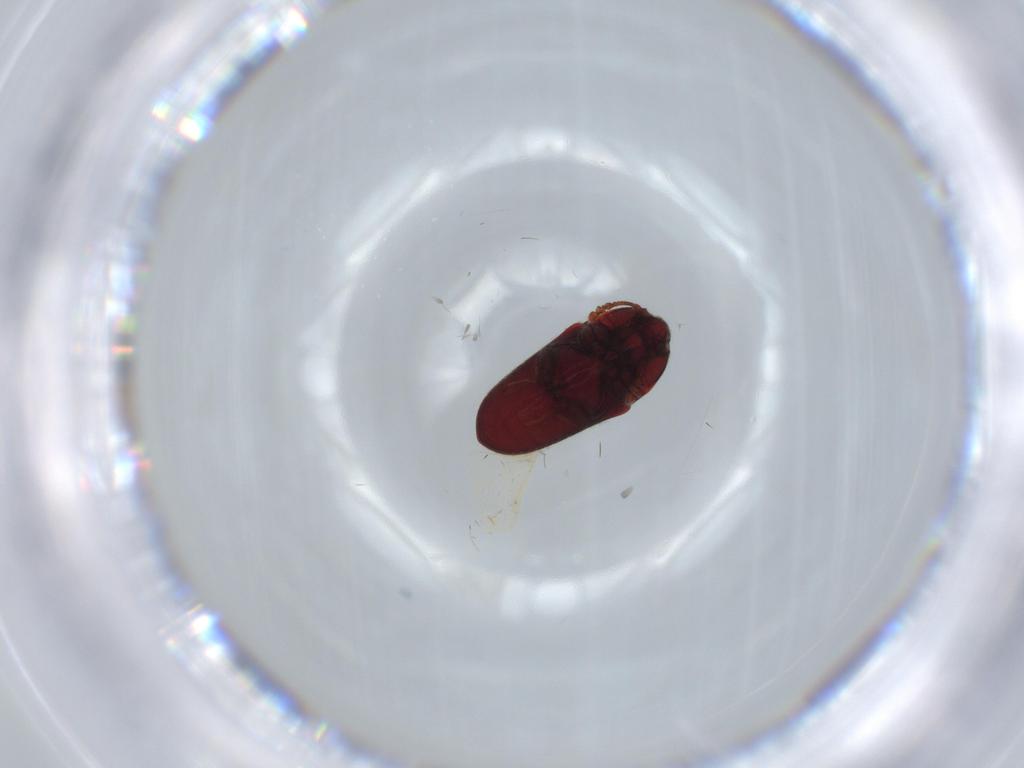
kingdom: Animalia
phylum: Arthropoda
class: Insecta
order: Coleoptera
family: Throscidae
